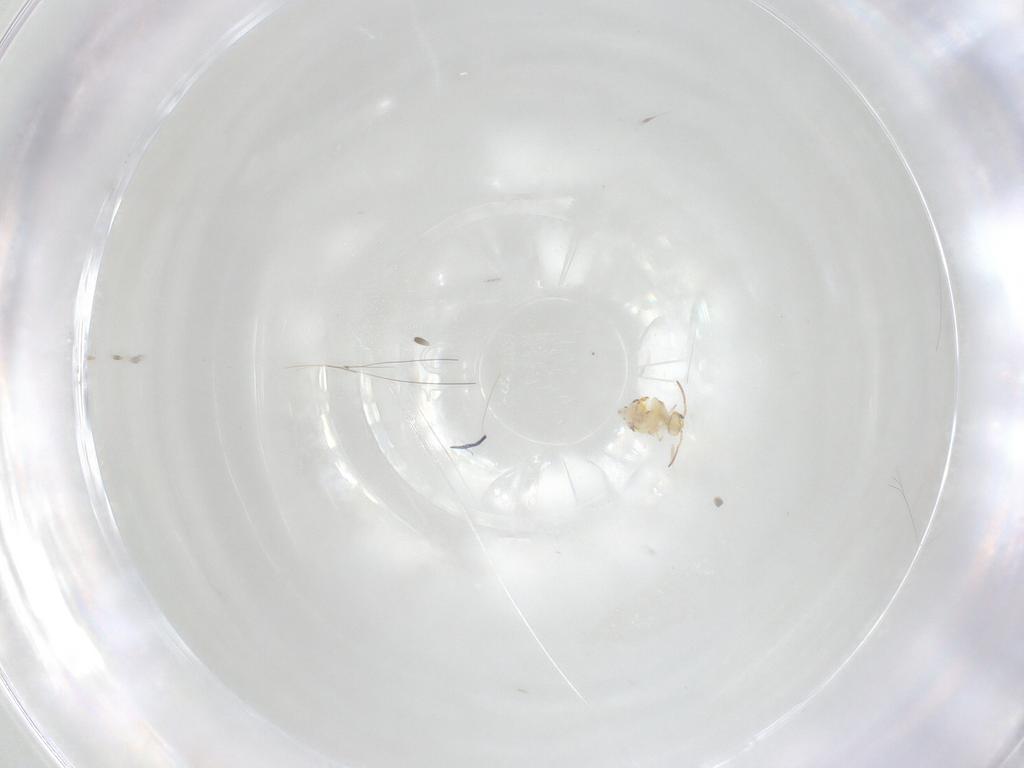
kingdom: Animalia
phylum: Arthropoda
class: Collembola
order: Symphypleona
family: Bourletiellidae
